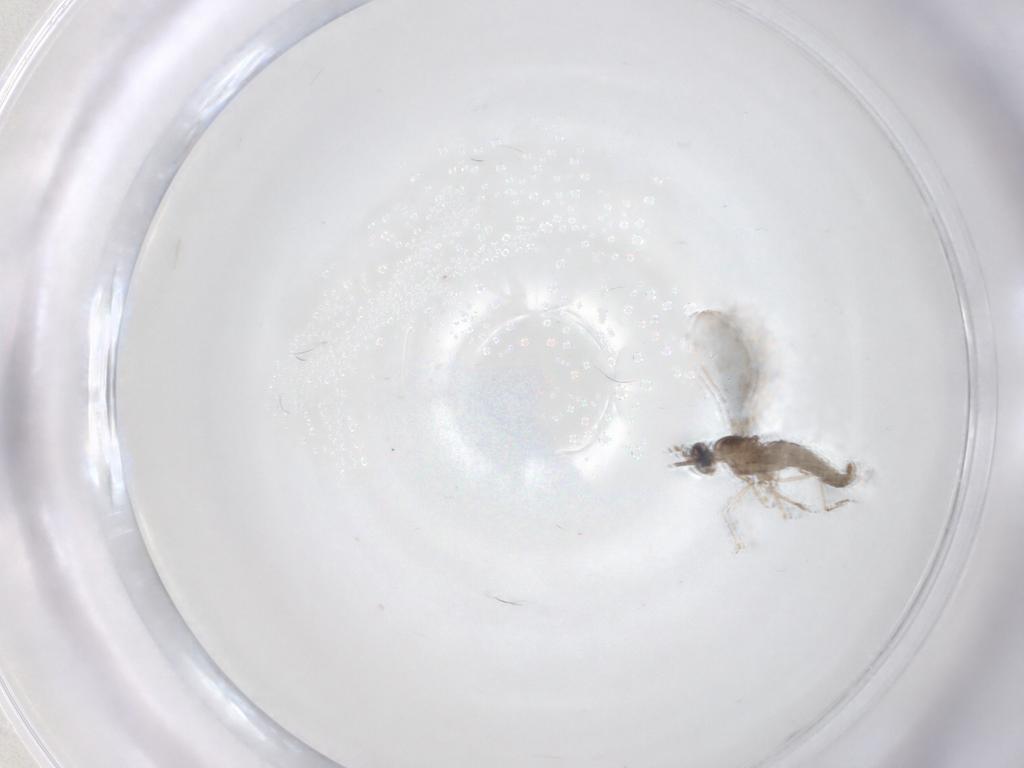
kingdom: Animalia
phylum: Arthropoda
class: Insecta
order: Diptera
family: Cecidomyiidae
